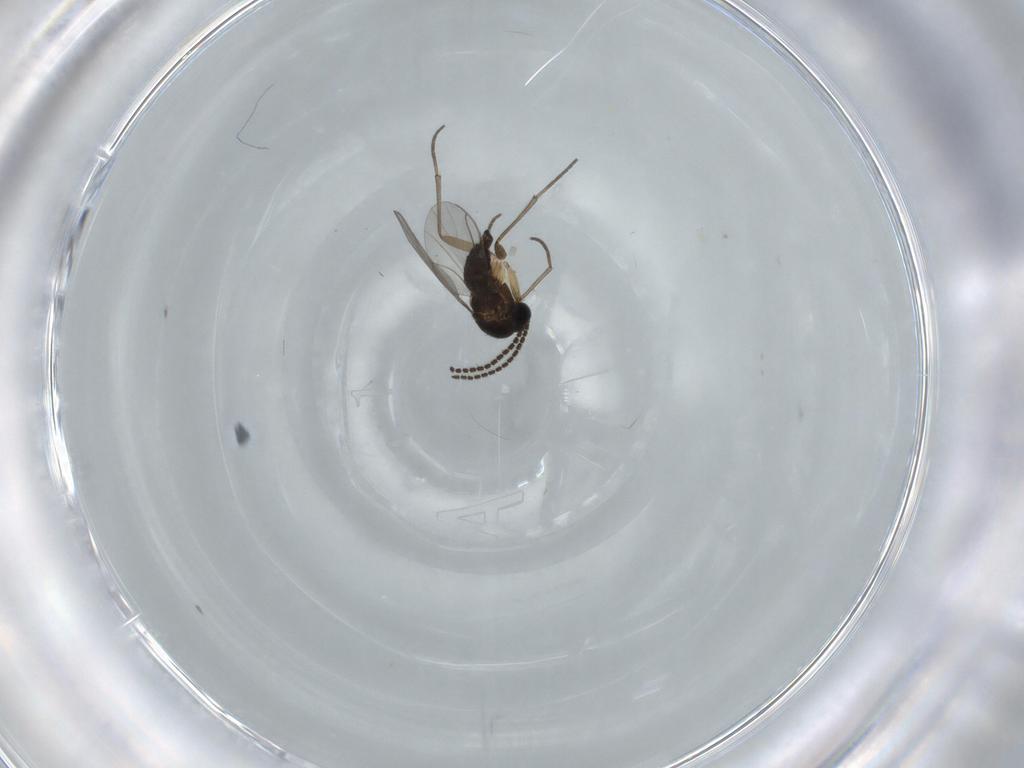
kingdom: Animalia
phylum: Arthropoda
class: Insecta
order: Diptera
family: Sciaridae
